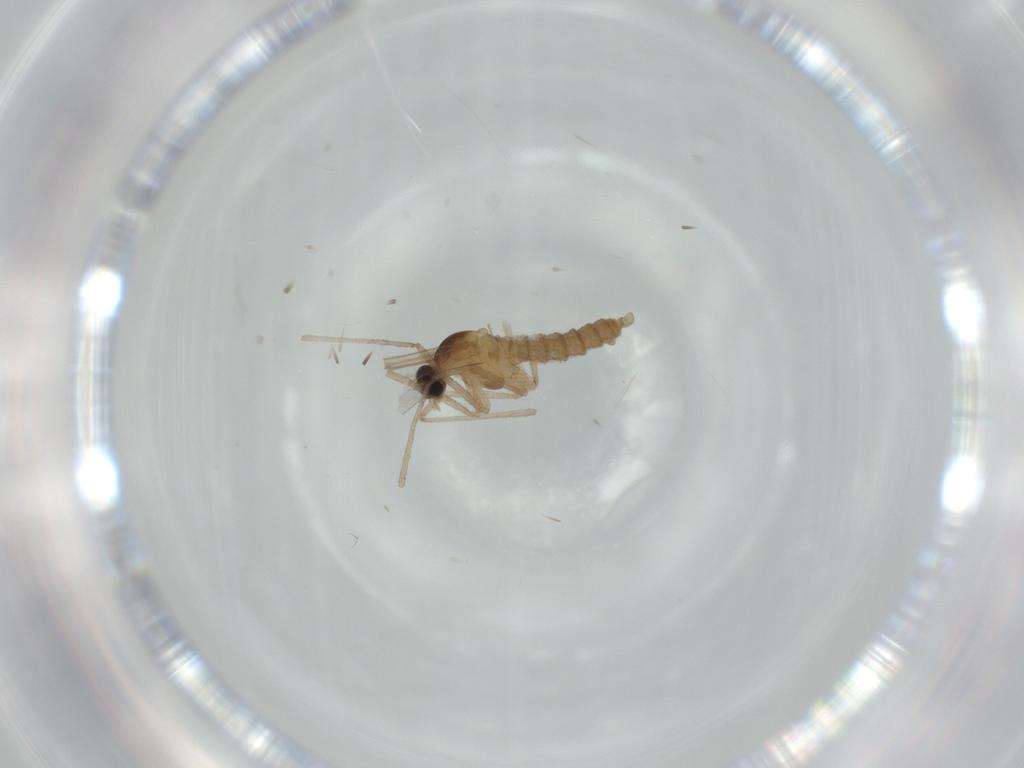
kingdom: Animalia
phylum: Arthropoda
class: Insecta
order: Diptera
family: Cecidomyiidae
